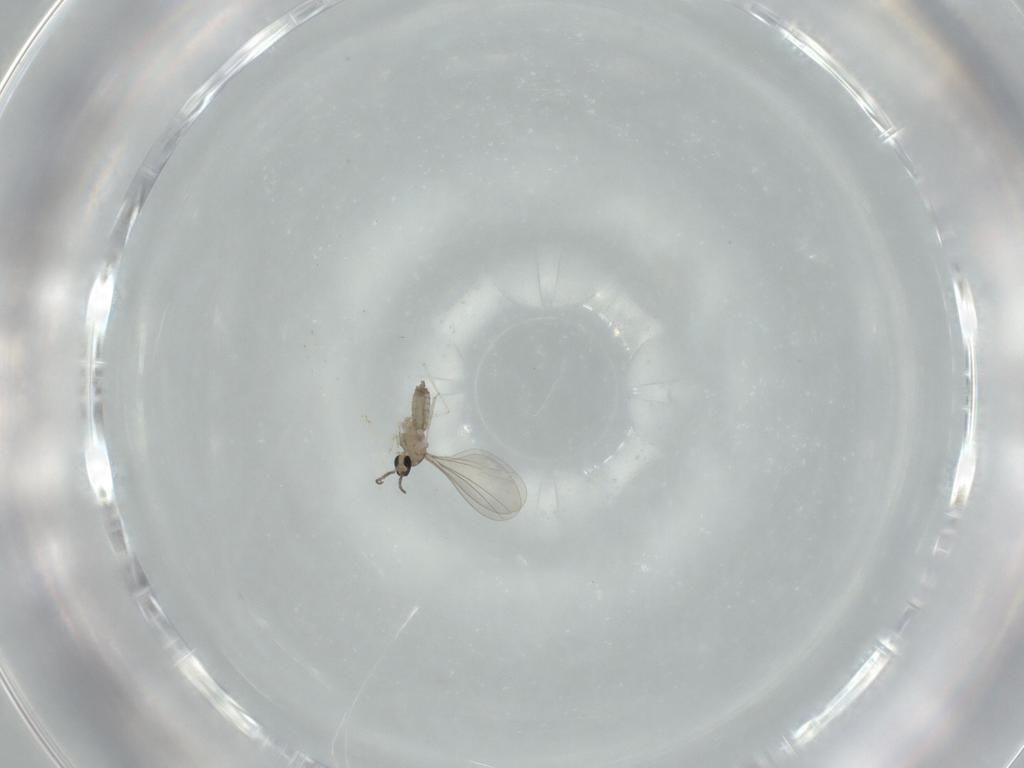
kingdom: Animalia
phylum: Arthropoda
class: Insecta
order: Diptera
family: Cecidomyiidae
